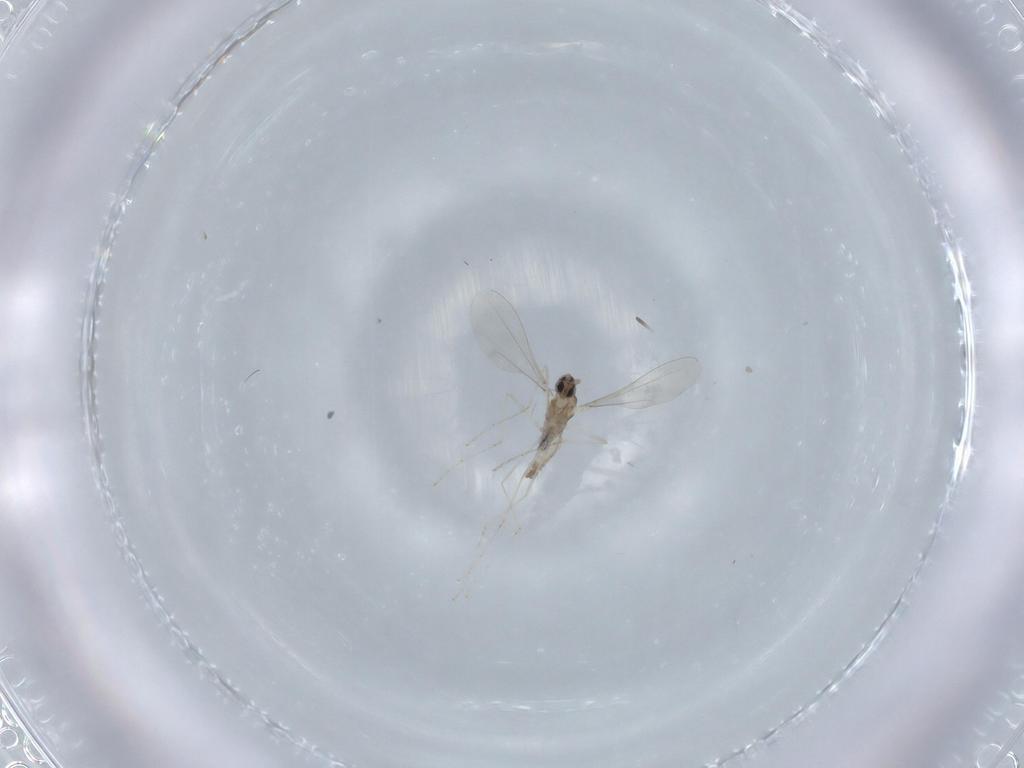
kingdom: Animalia
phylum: Arthropoda
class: Insecta
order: Diptera
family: Cecidomyiidae
